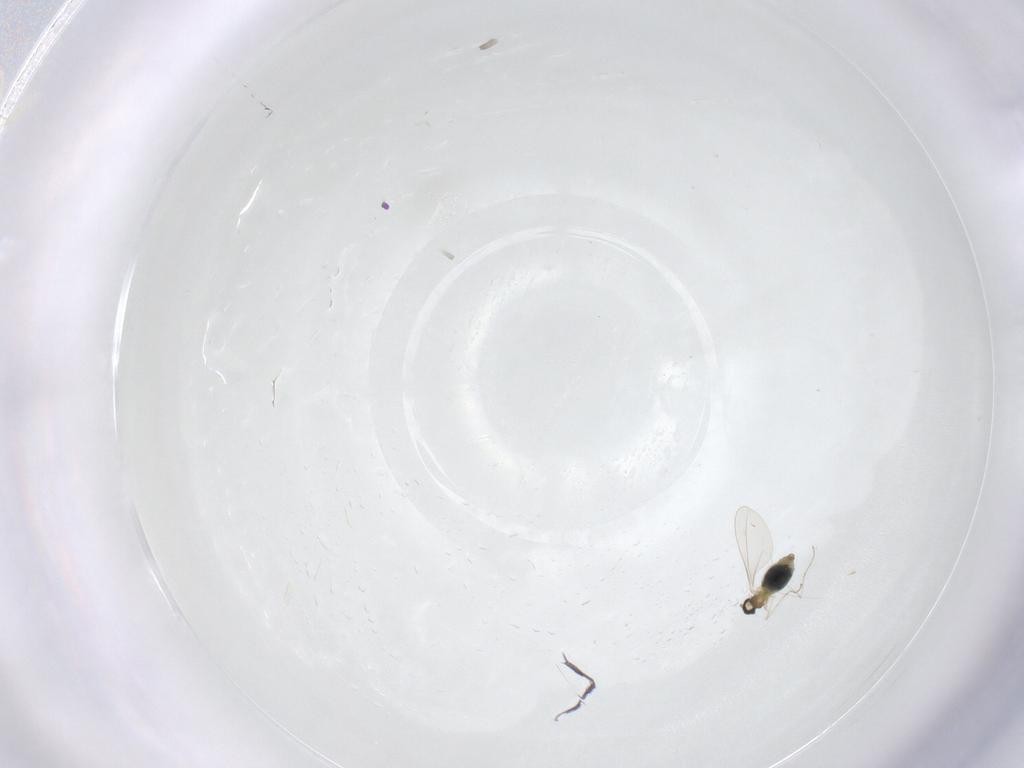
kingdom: Animalia
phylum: Arthropoda
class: Insecta
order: Diptera
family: Cecidomyiidae
